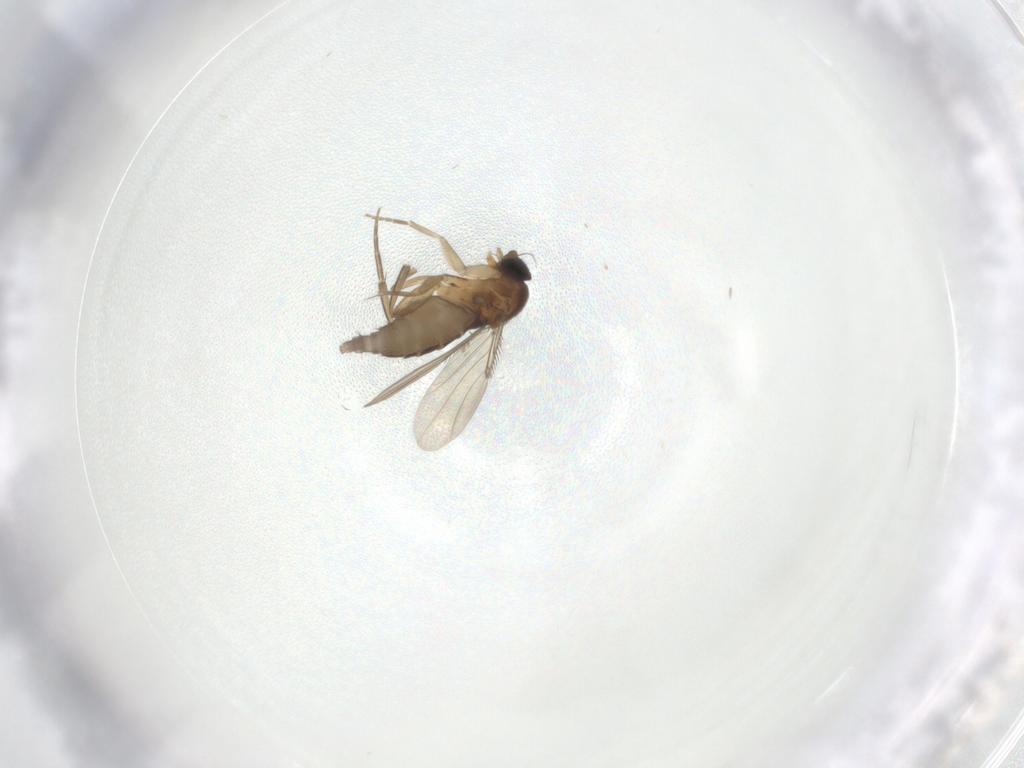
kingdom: Animalia
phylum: Arthropoda
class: Insecta
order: Diptera
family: Phoridae
